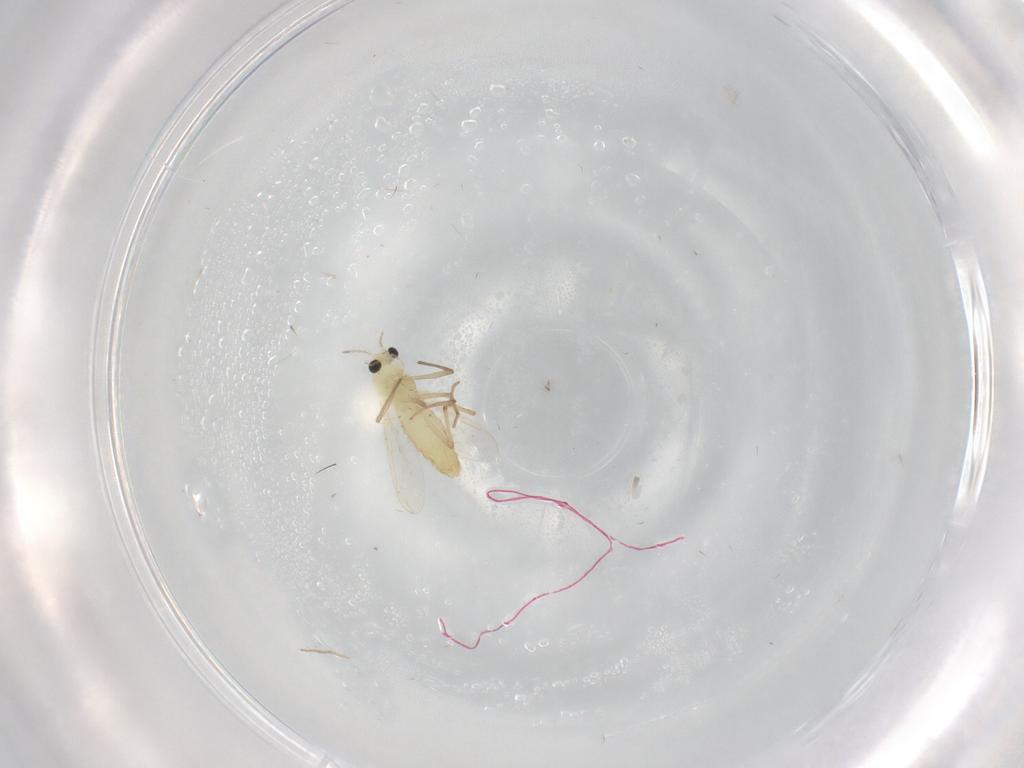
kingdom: Animalia
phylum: Arthropoda
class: Insecta
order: Diptera
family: Chironomidae
